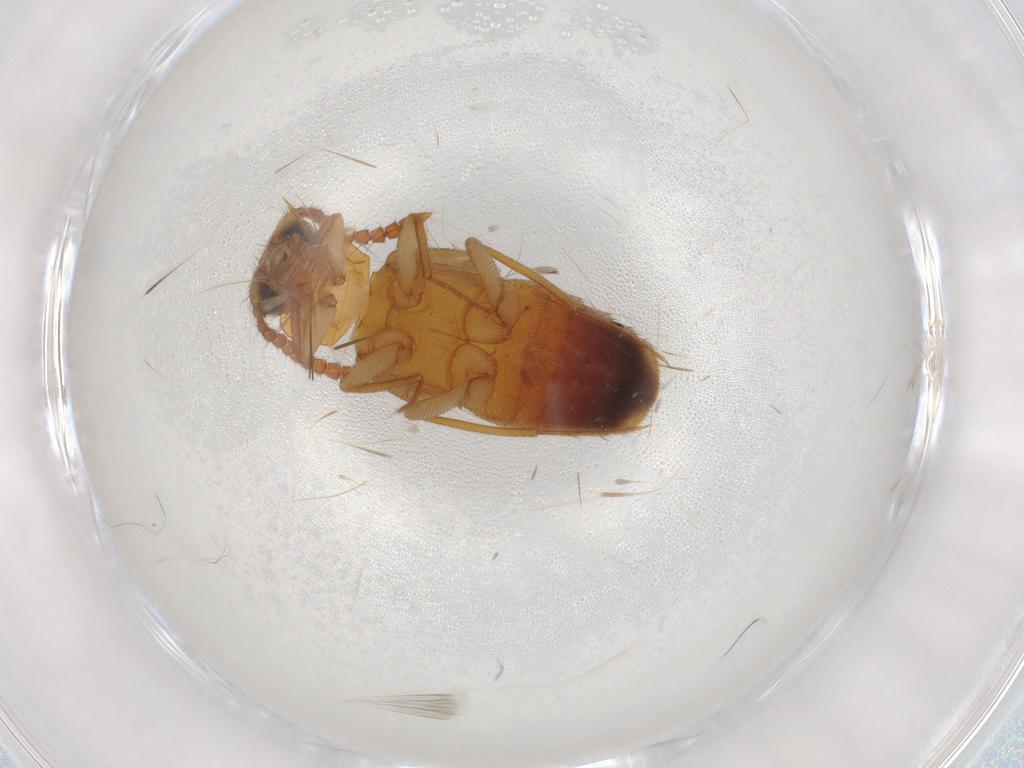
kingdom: Animalia
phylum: Arthropoda
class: Insecta
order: Coleoptera
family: Staphylinidae
